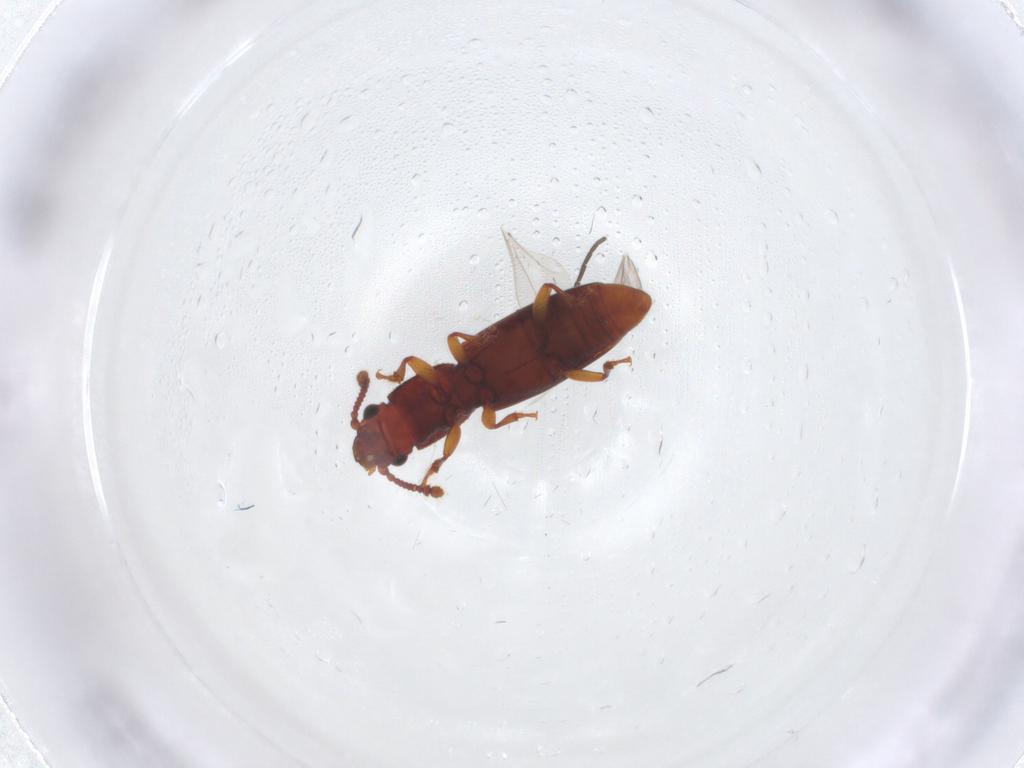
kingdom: Animalia
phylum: Arthropoda
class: Insecta
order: Coleoptera
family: Monotomidae
